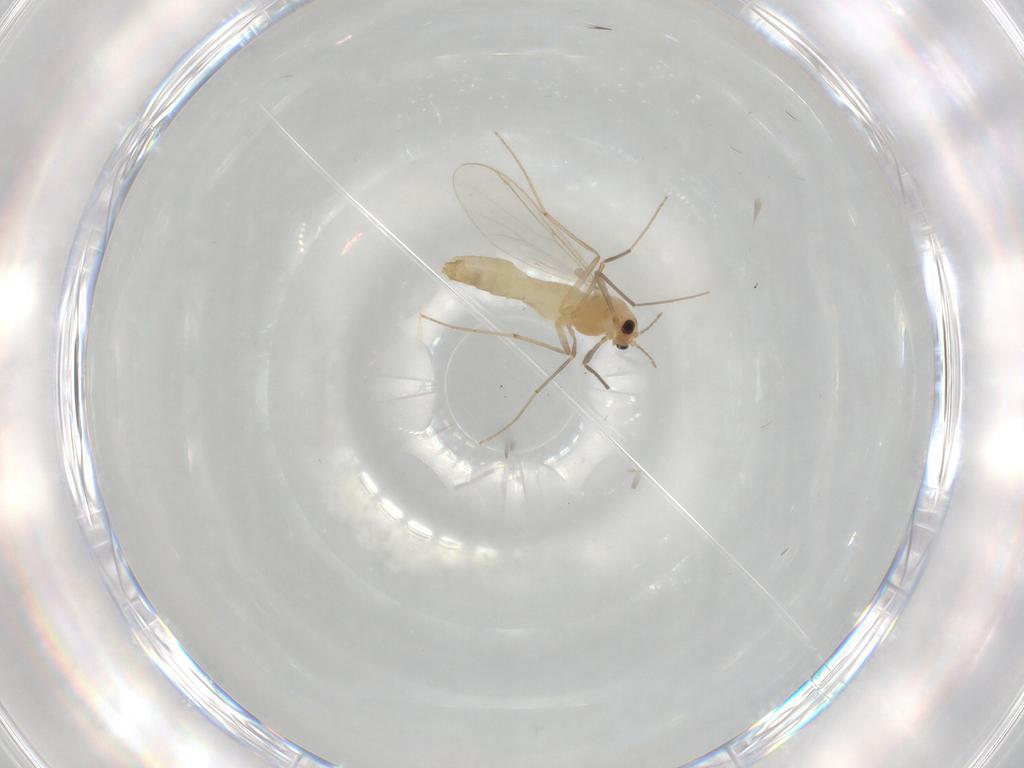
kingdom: Animalia
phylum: Arthropoda
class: Insecta
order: Diptera
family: Chironomidae
